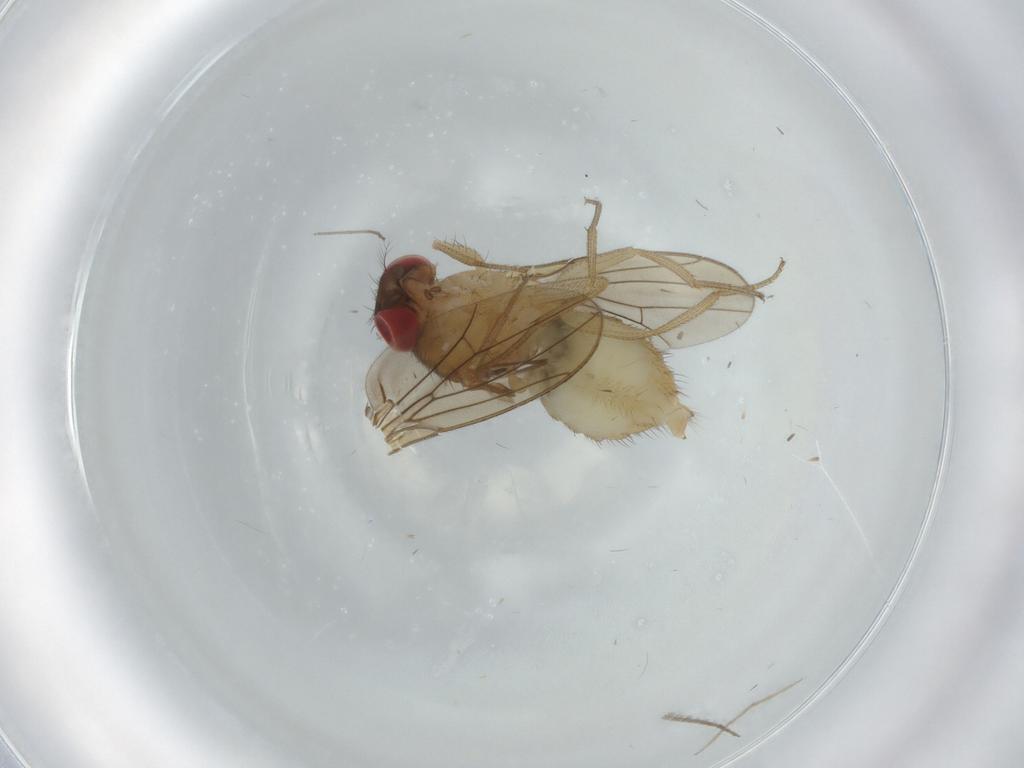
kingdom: Animalia
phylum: Arthropoda
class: Insecta
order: Diptera
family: Drosophilidae
